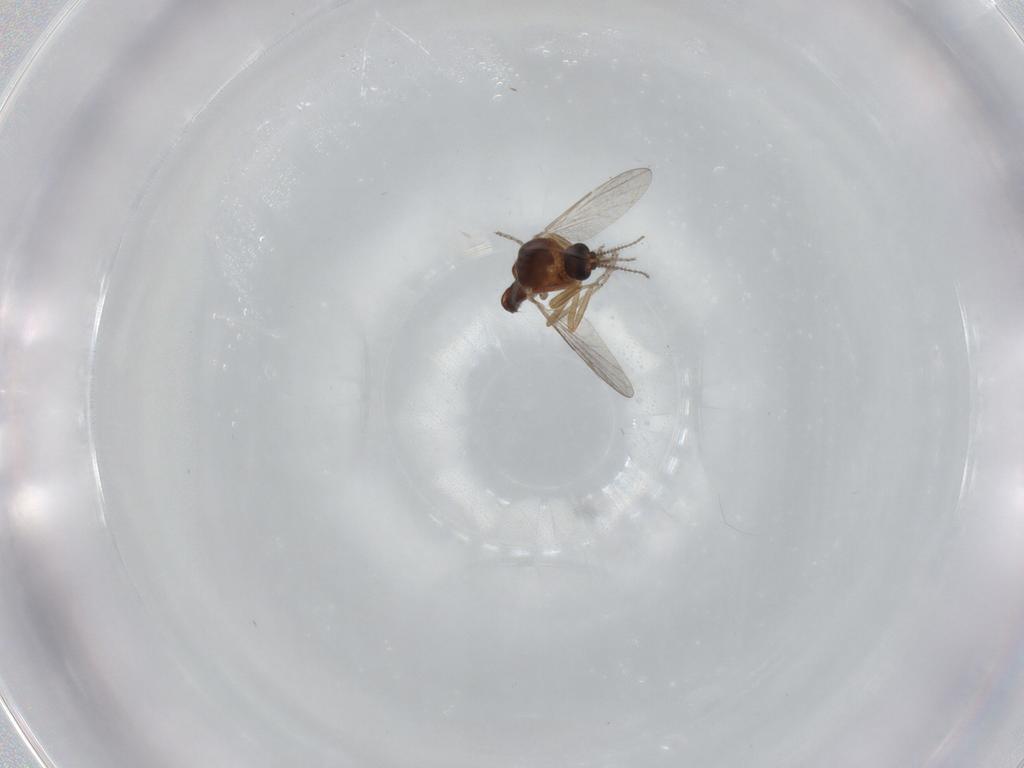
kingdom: Animalia
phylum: Arthropoda
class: Insecta
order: Diptera
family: Ceratopogonidae
